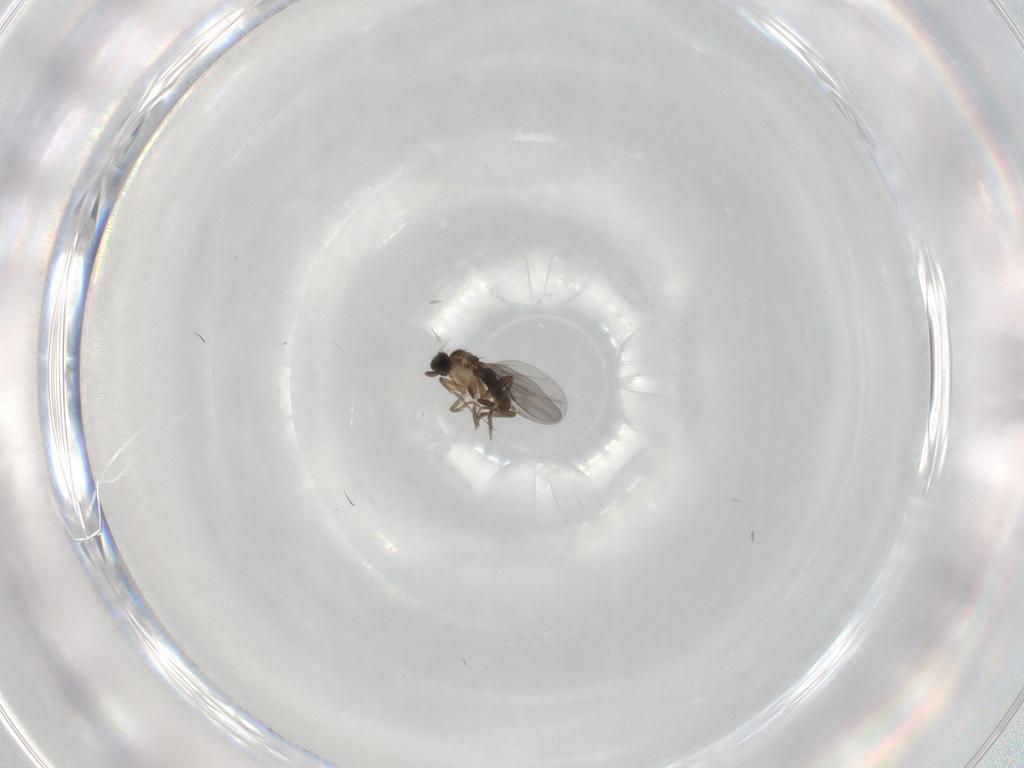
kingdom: Animalia
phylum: Arthropoda
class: Insecta
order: Diptera
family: Phoridae
